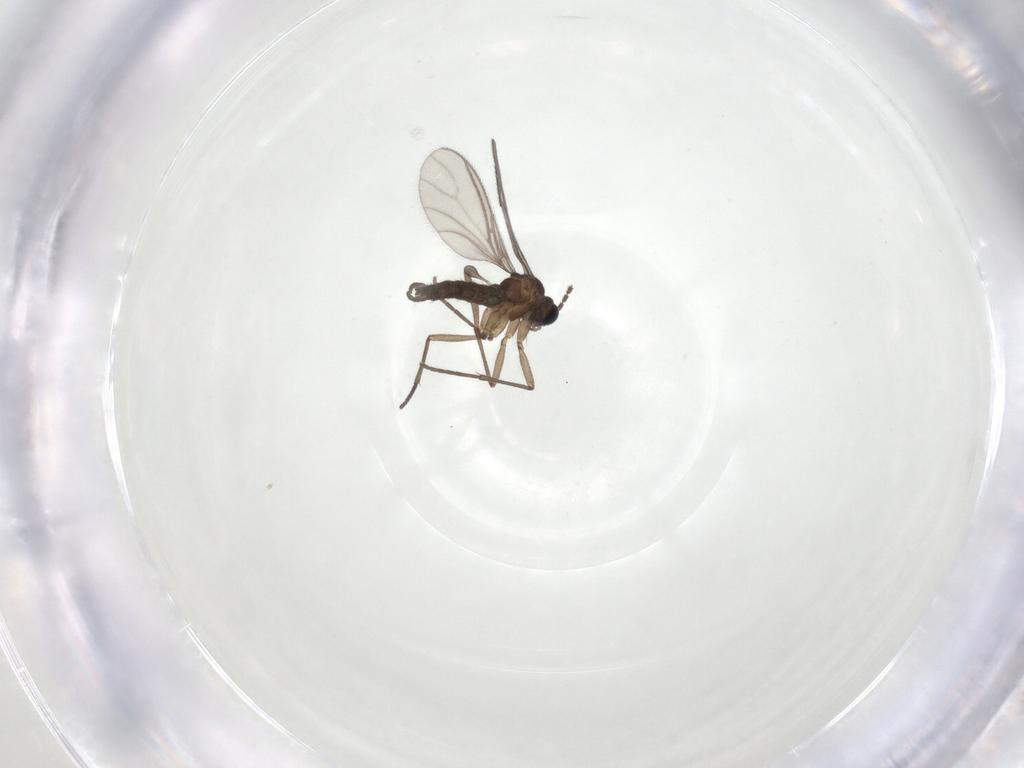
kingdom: Animalia
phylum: Arthropoda
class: Insecta
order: Diptera
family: Sciaridae
